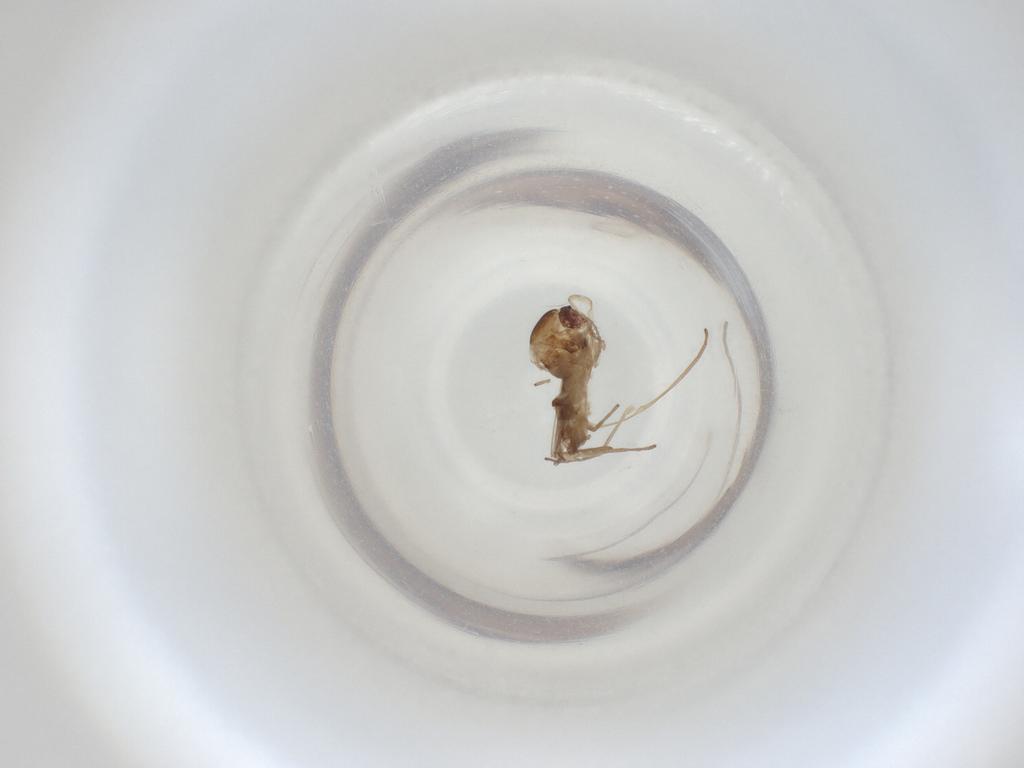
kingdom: Animalia
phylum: Arthropoda
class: Insecta
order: Diptera
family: Cecidomyiidae
